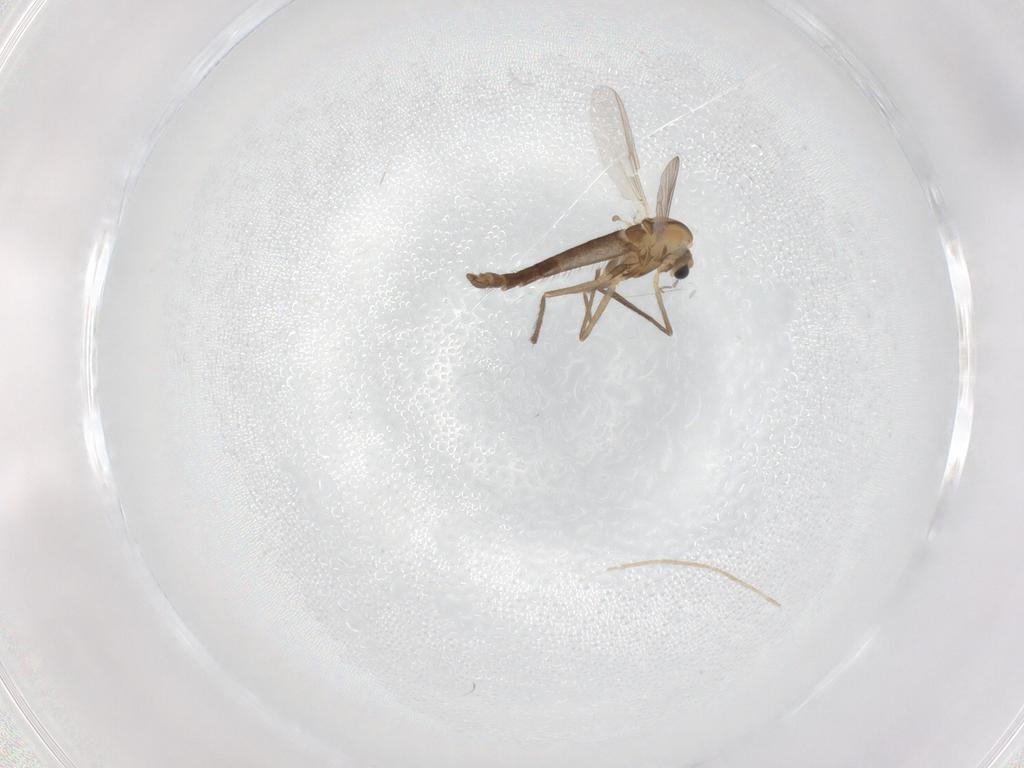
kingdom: Animalia
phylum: Arthropoda
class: Insecta
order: Diptera
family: Chironomidae
